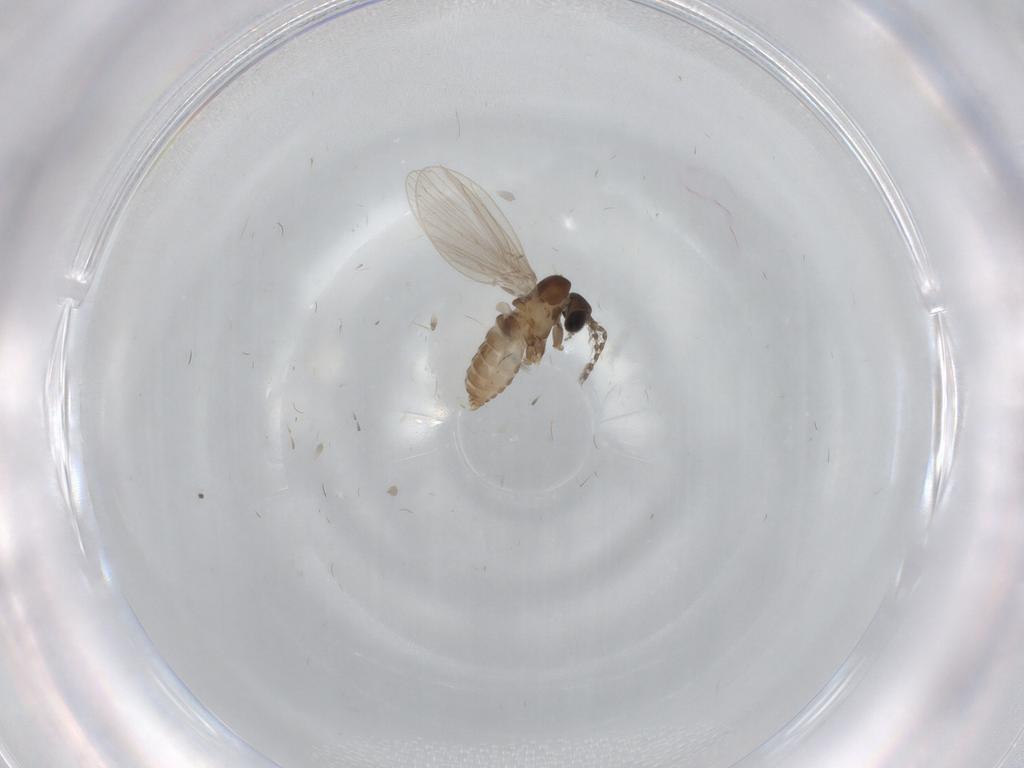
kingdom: Animalia
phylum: Arthropoda
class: Insecta
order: Diptera
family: Psychodidae
